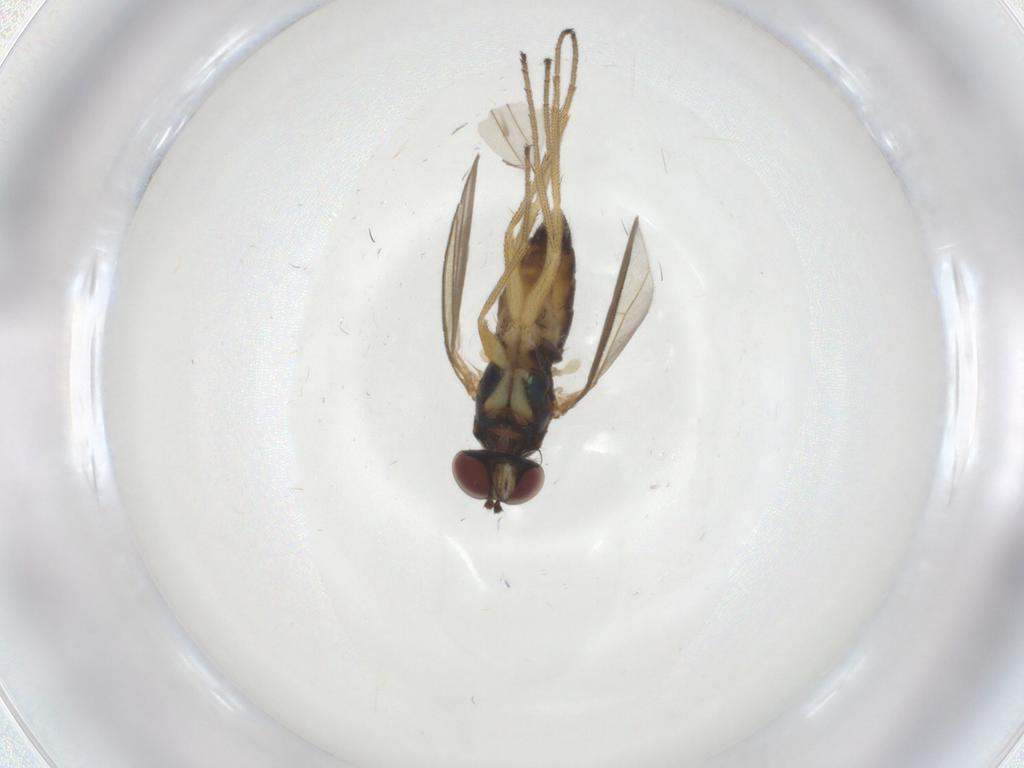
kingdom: Animalia
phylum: Arthropoda
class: Insecta
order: Diptera
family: Dolichopodidae
